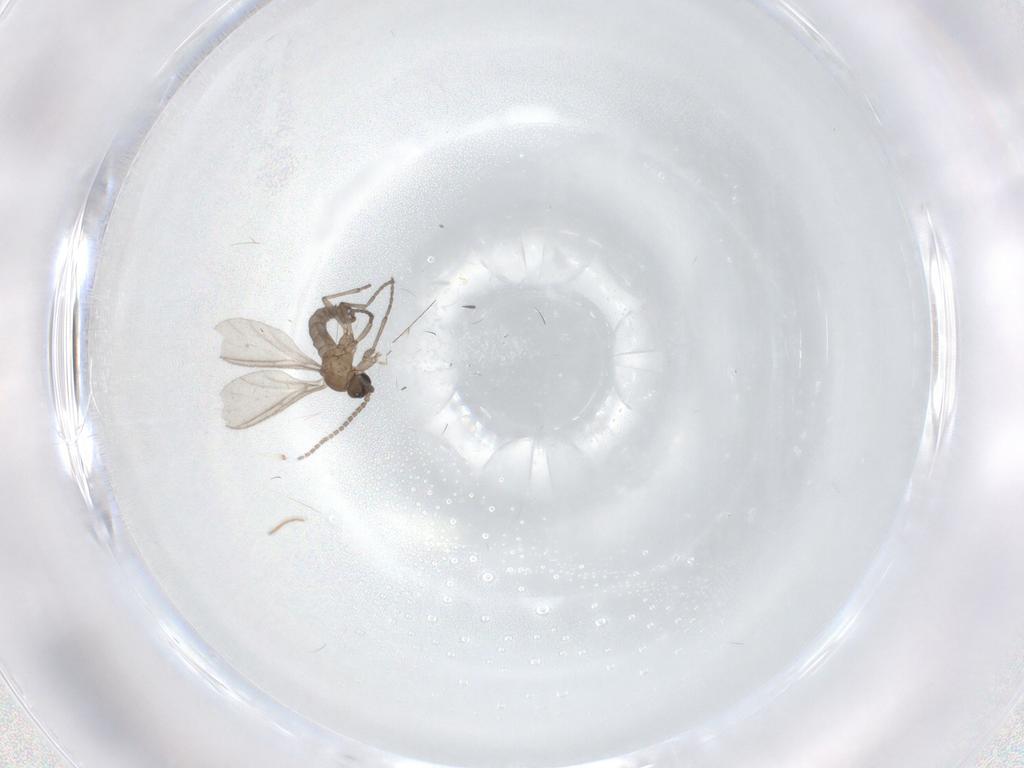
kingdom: Animalia
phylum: Arthropoda
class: Insecta
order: Diptera
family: Sciaridae
